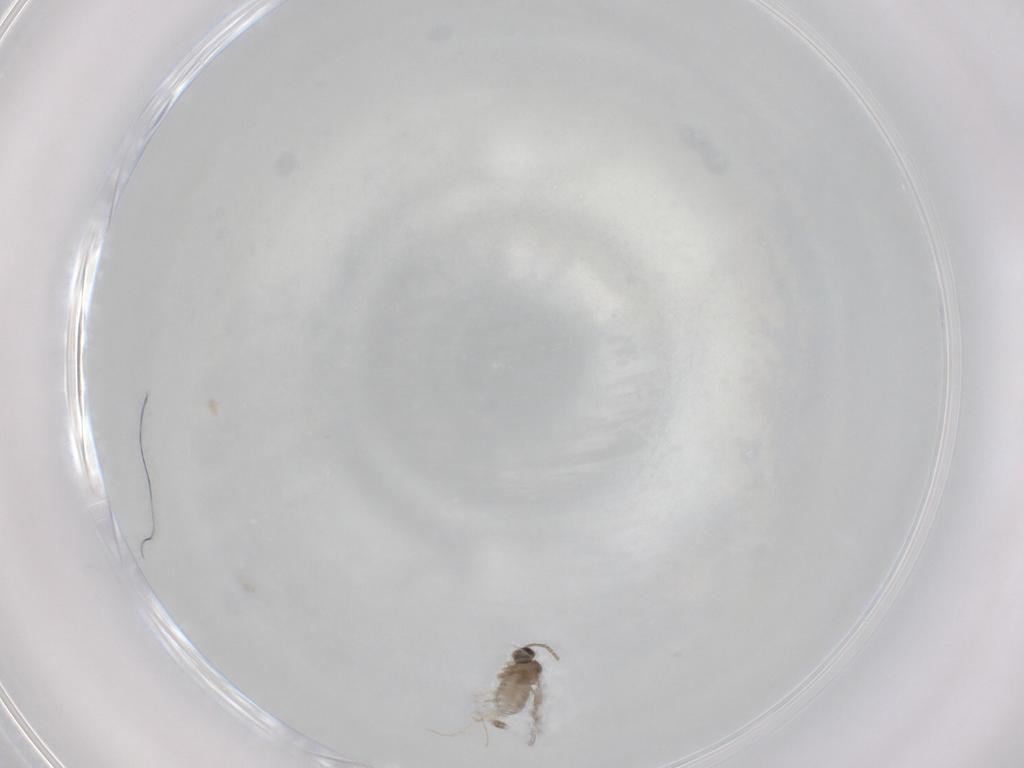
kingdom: Animalia
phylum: Arthropoda
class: Insecta
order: Diptera
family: Cecidomyiidae
